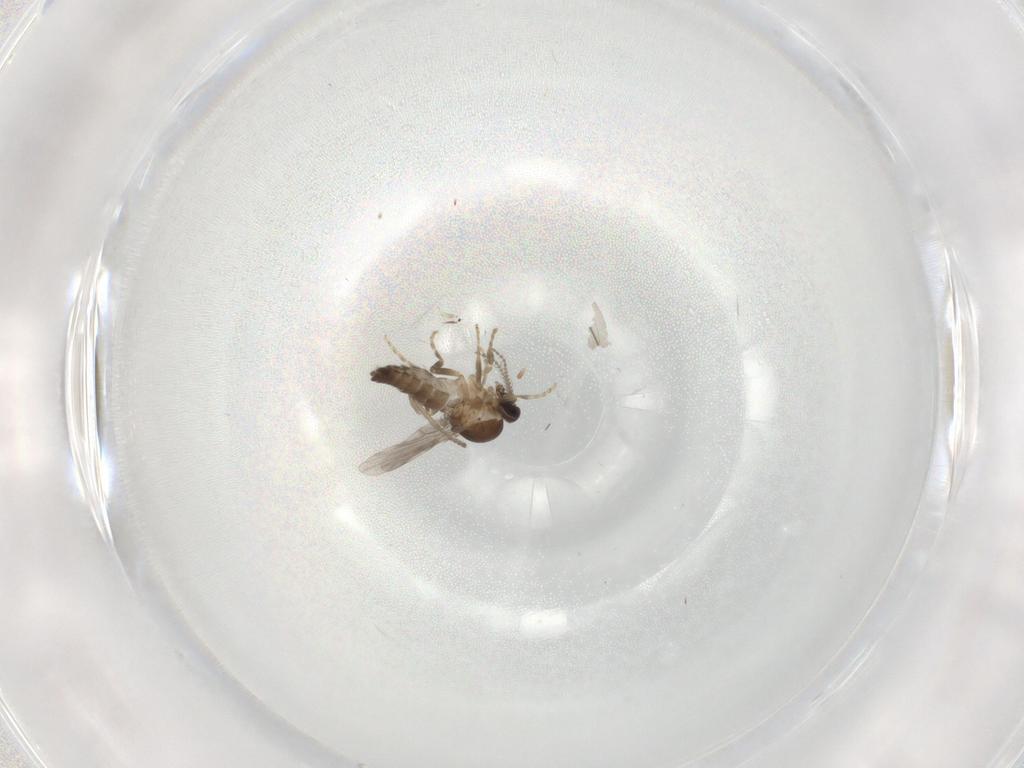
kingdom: Animalia
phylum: Arthropoda
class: Insecta
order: Diptera
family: Ceratopogonidae
